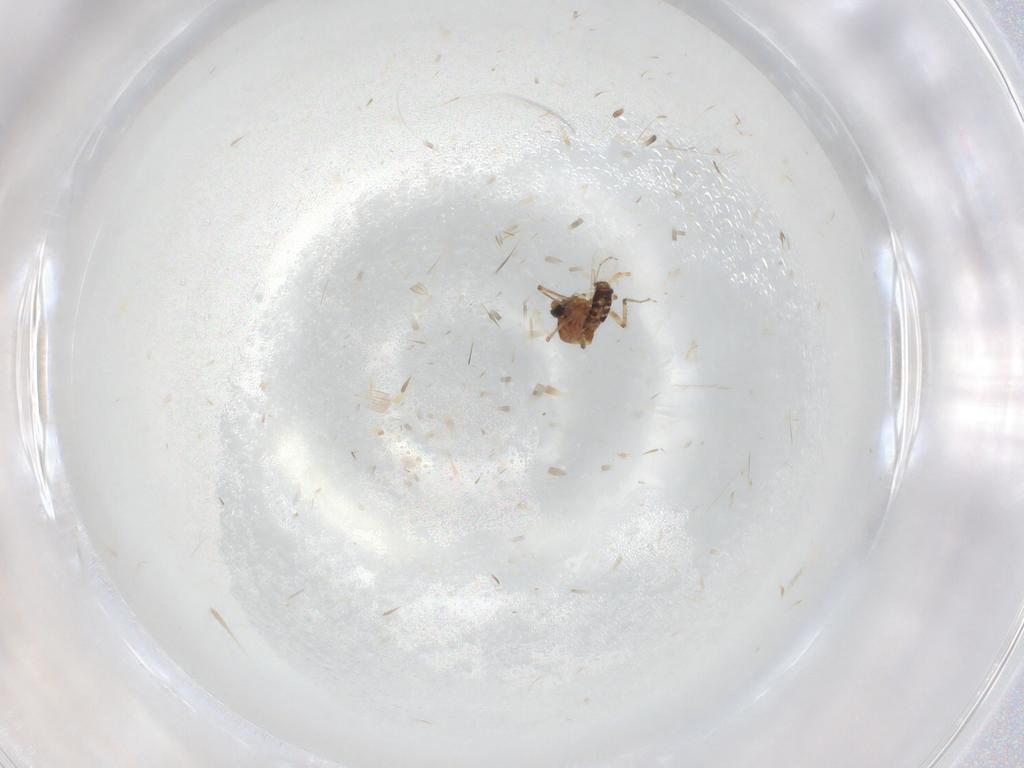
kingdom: Animalia
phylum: Arthropoda
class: Insecta
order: Diptera
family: Ceratopogonidae
